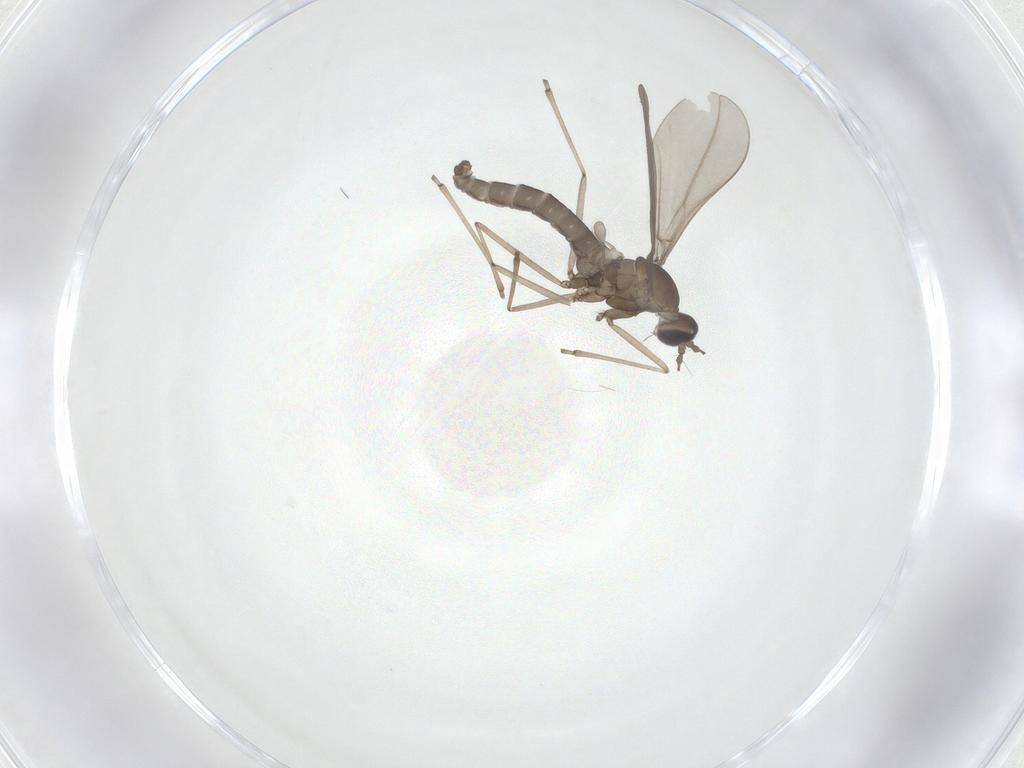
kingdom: Animalia
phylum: Arthropoda
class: Insecta
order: Diptera
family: Cecidomyiidae
